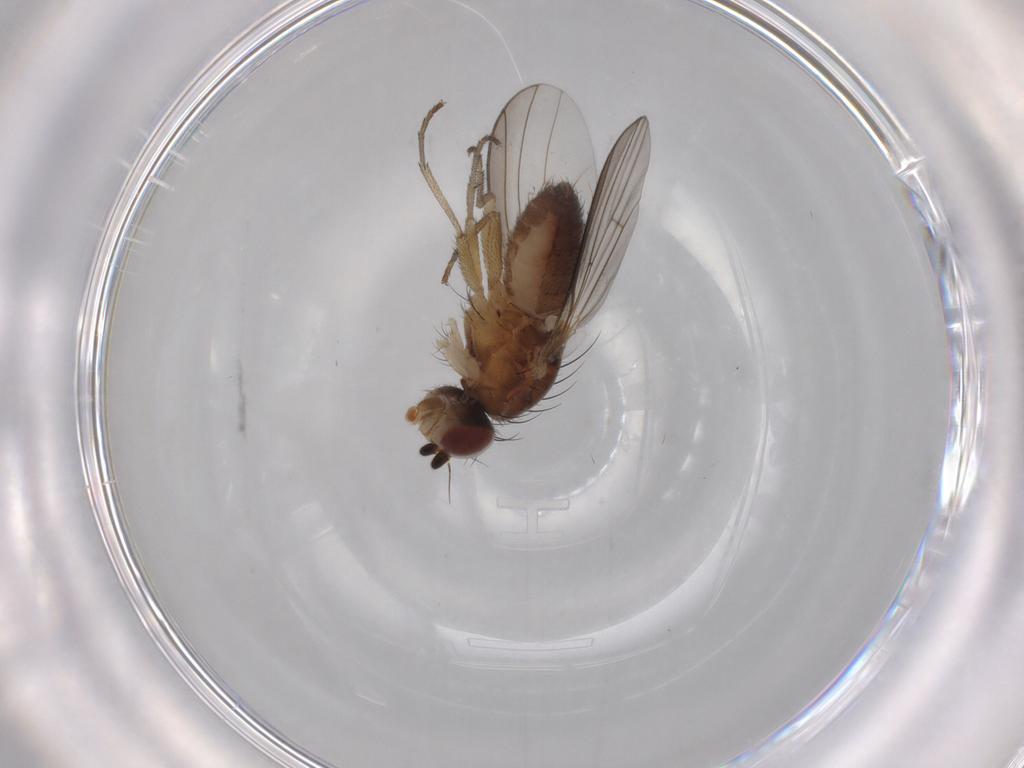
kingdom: Animalia
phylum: Arthropoda
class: Insecta
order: Diptera
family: Heleomyzidae
